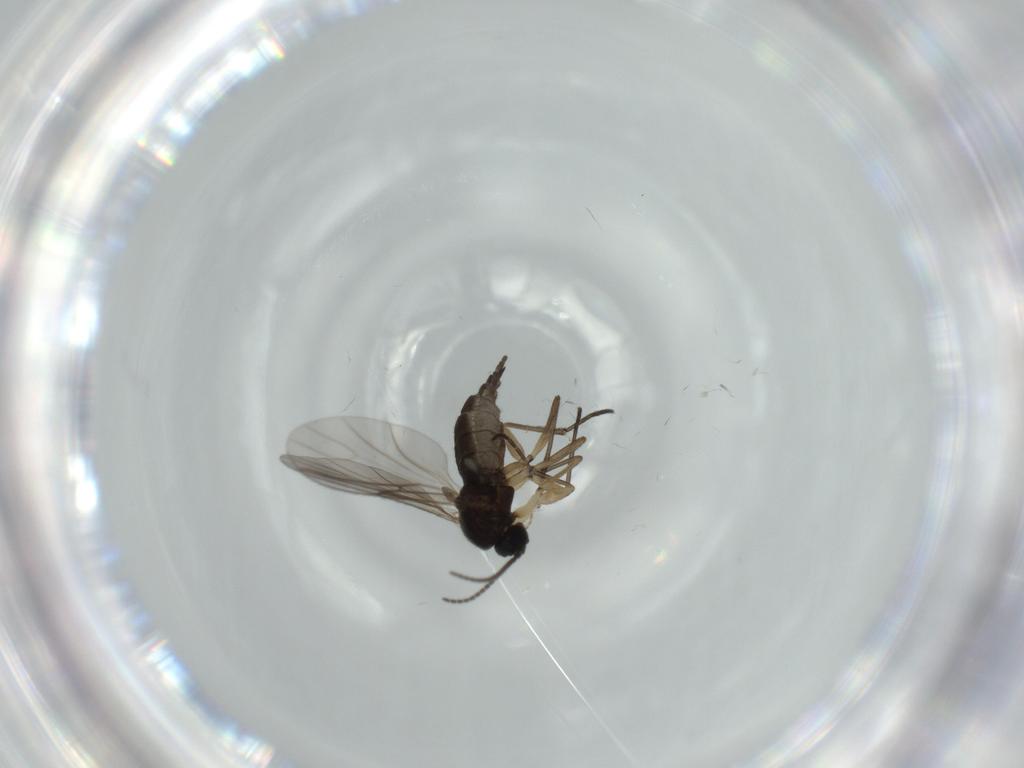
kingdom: Animalia
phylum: Arthropoda
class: Insecta
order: Diptera
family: Sciaridae
